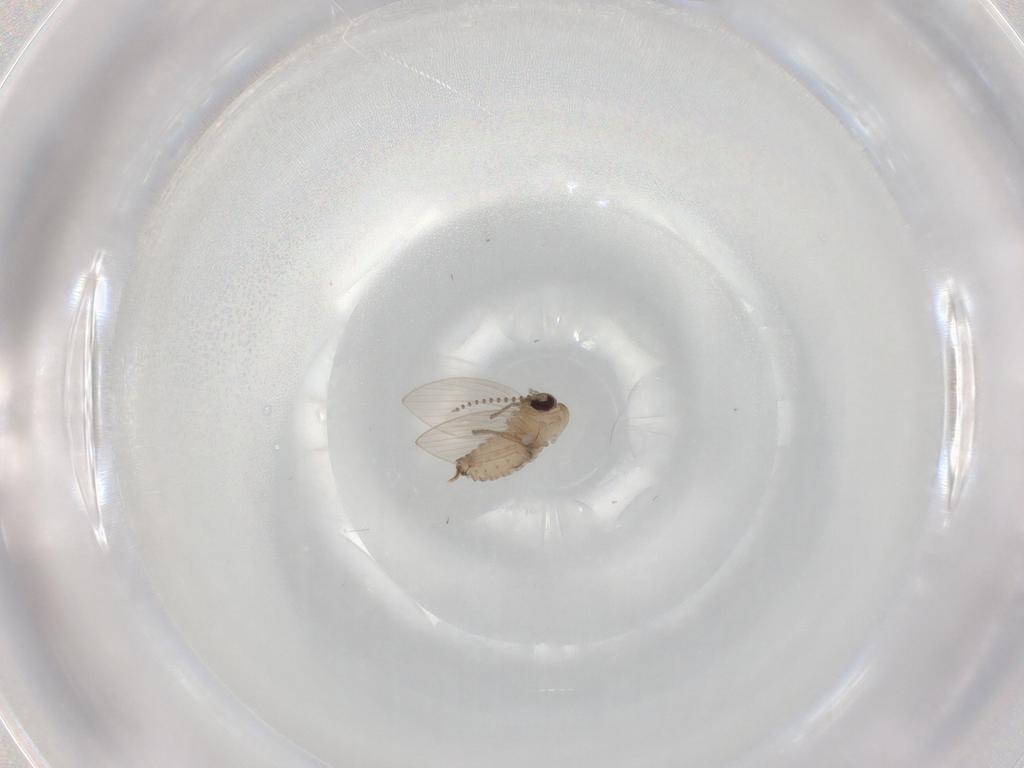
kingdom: Animalia
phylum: Arthropoda
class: Insecta
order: Diptera
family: Psychodidae
